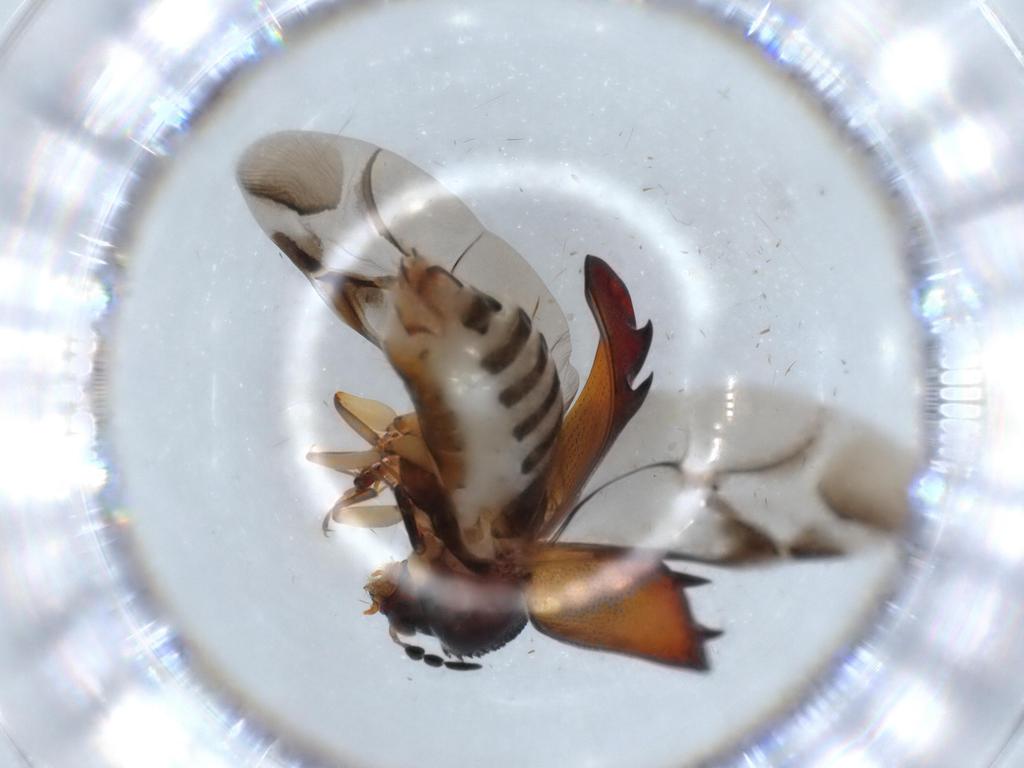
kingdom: Animalia
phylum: Arthropoda
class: Insecta
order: Coleoptera
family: Bostrichidae
